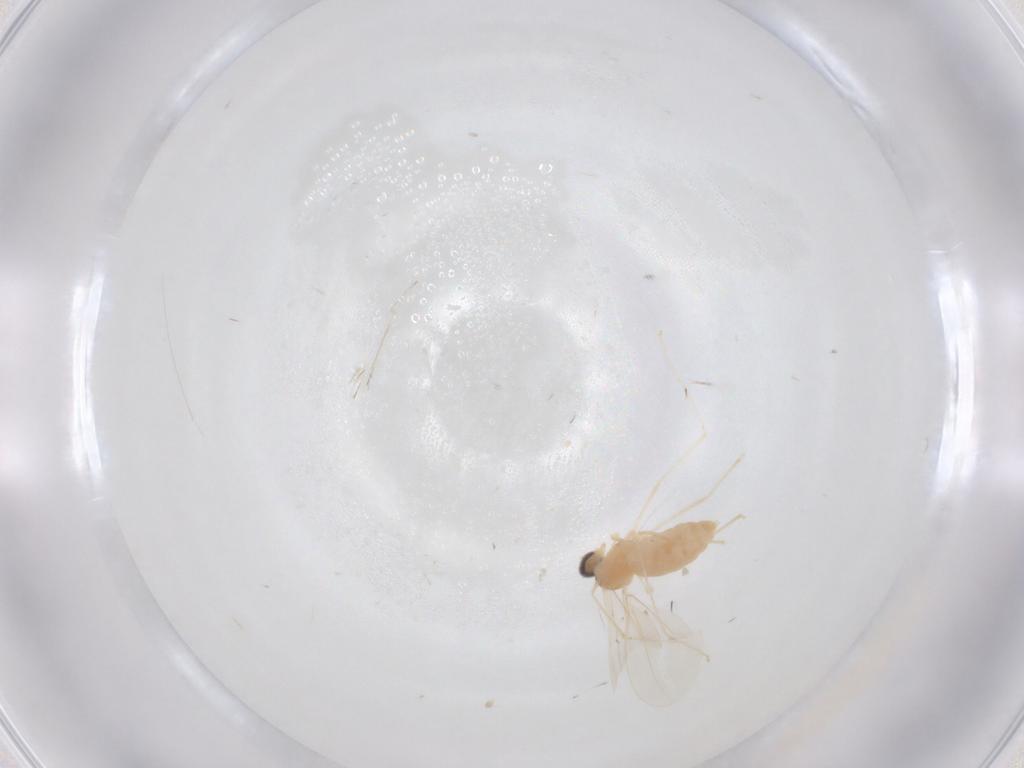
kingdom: Animalia
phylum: Arthropoda
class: Insecta
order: Diptera
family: Cecidomyiidae
